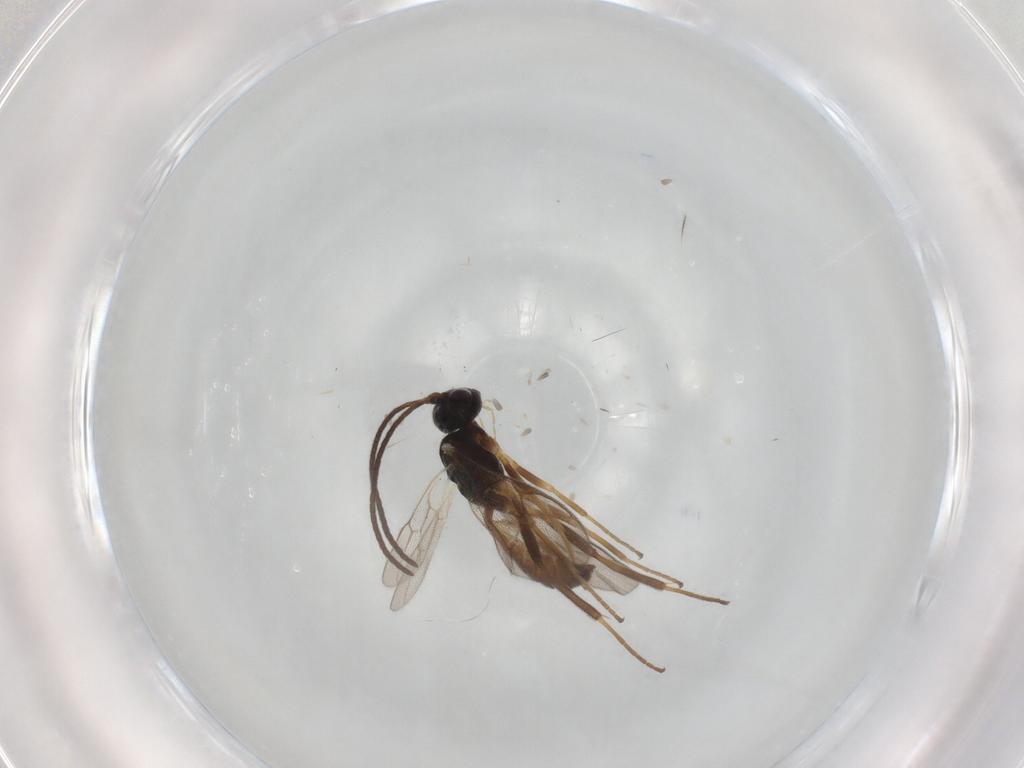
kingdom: Animalia
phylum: Arthropoda
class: Insecta
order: Hymenoptera
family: Ichneumonidae
